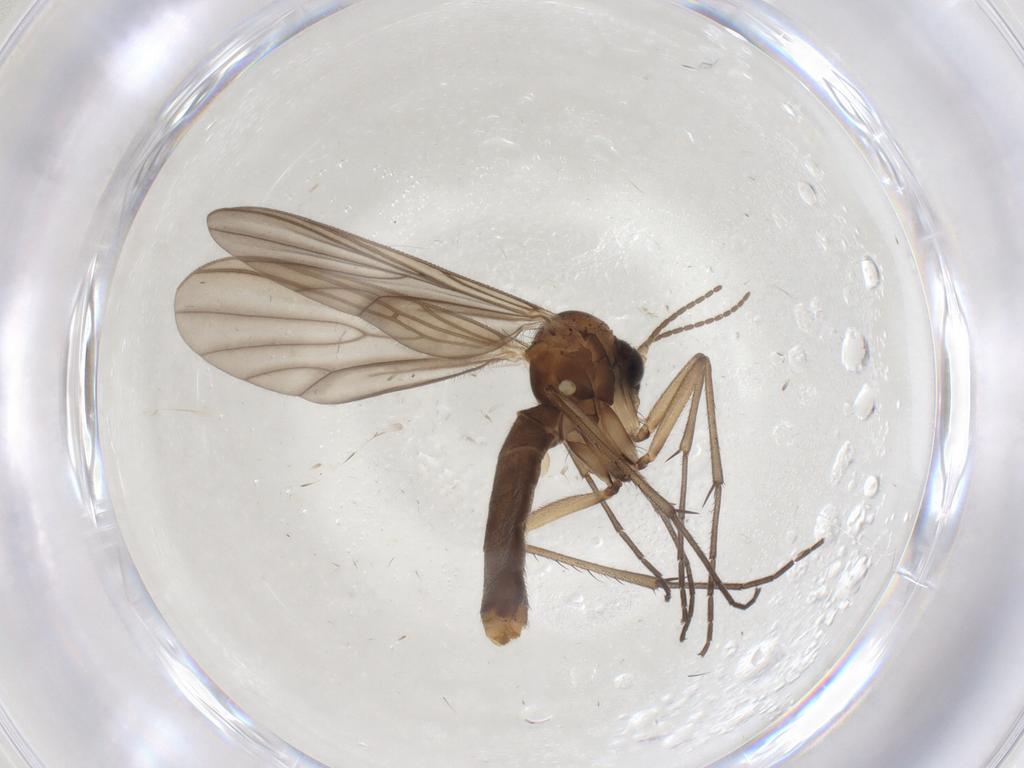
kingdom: Animalia
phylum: Arthropoda
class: Insecta
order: Diptera
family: Mycetophilidae
